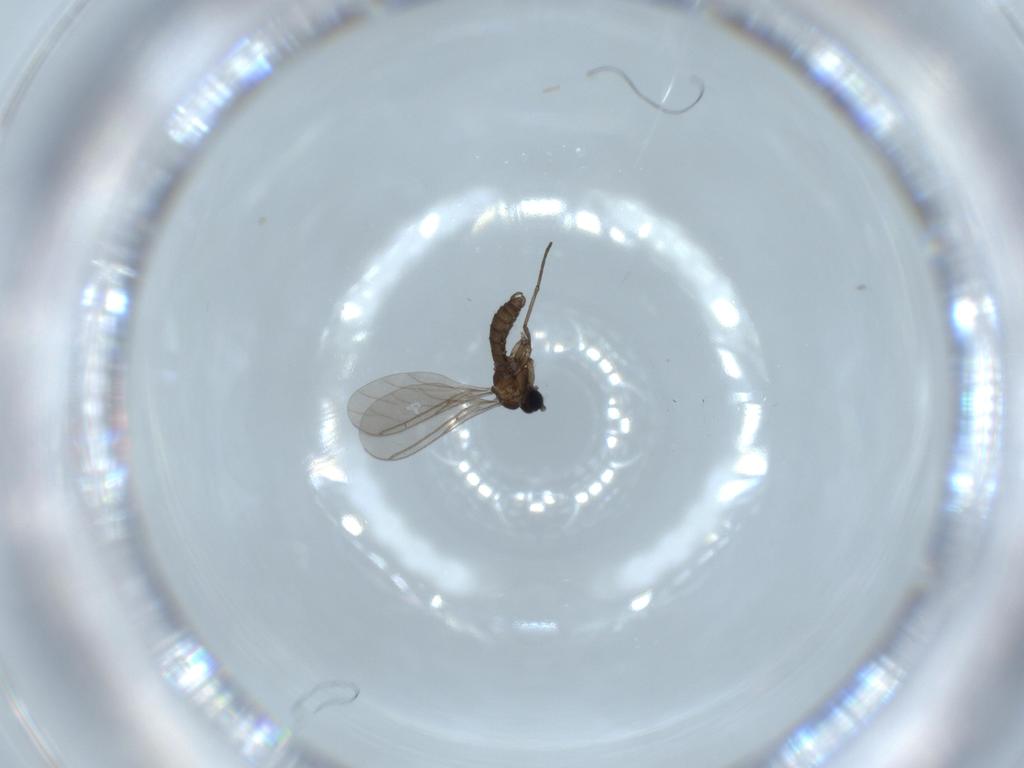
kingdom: Animalia
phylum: Arthropoda
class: Insecta
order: Diptera
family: Sciaridae
